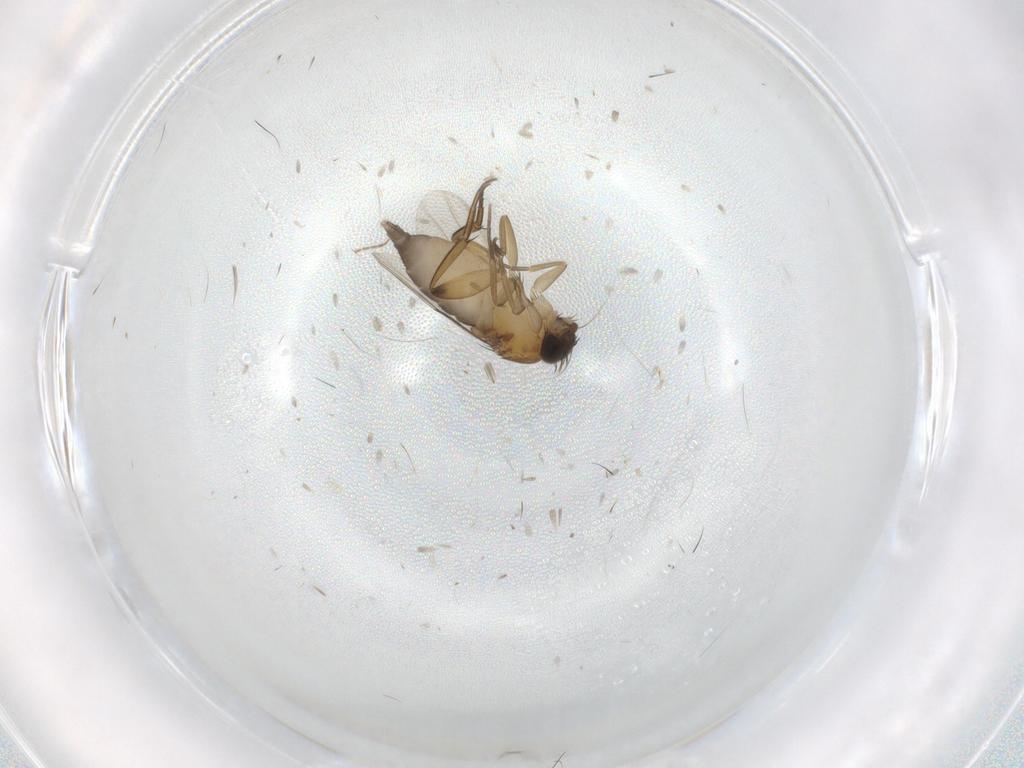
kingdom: Animalia
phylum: Arthropoda
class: Insecta
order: Diptera
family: Phoridae
